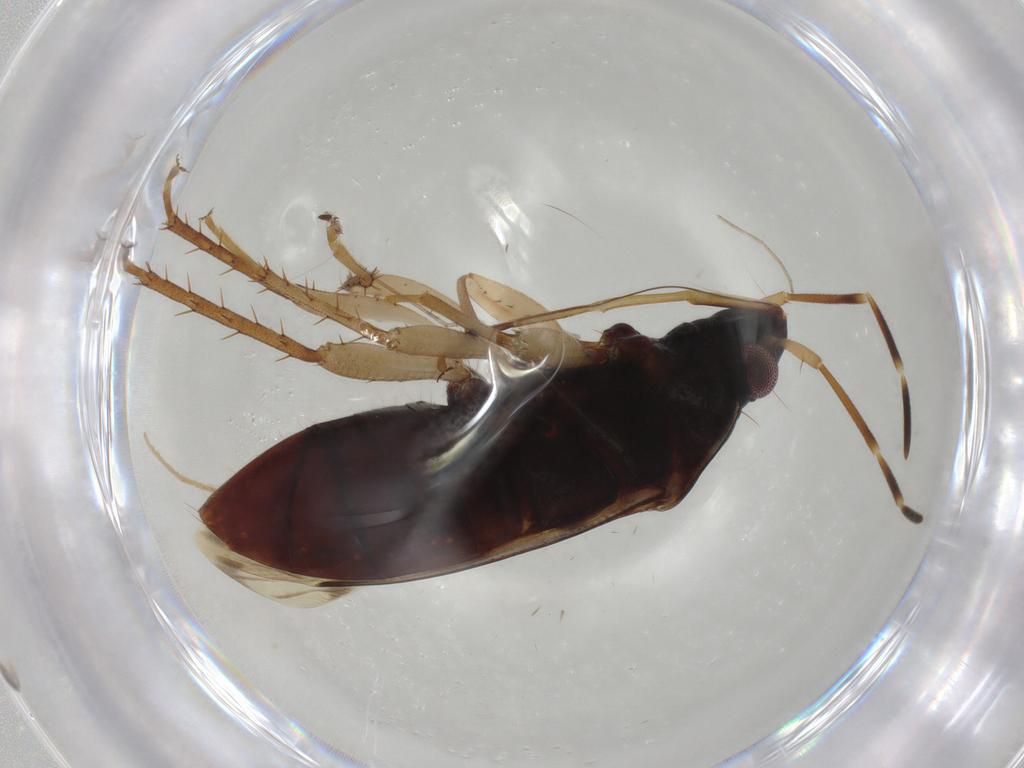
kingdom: Animalia
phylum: Arthropoda
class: Insecta
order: Hemiptera
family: Rhyparochromidae
